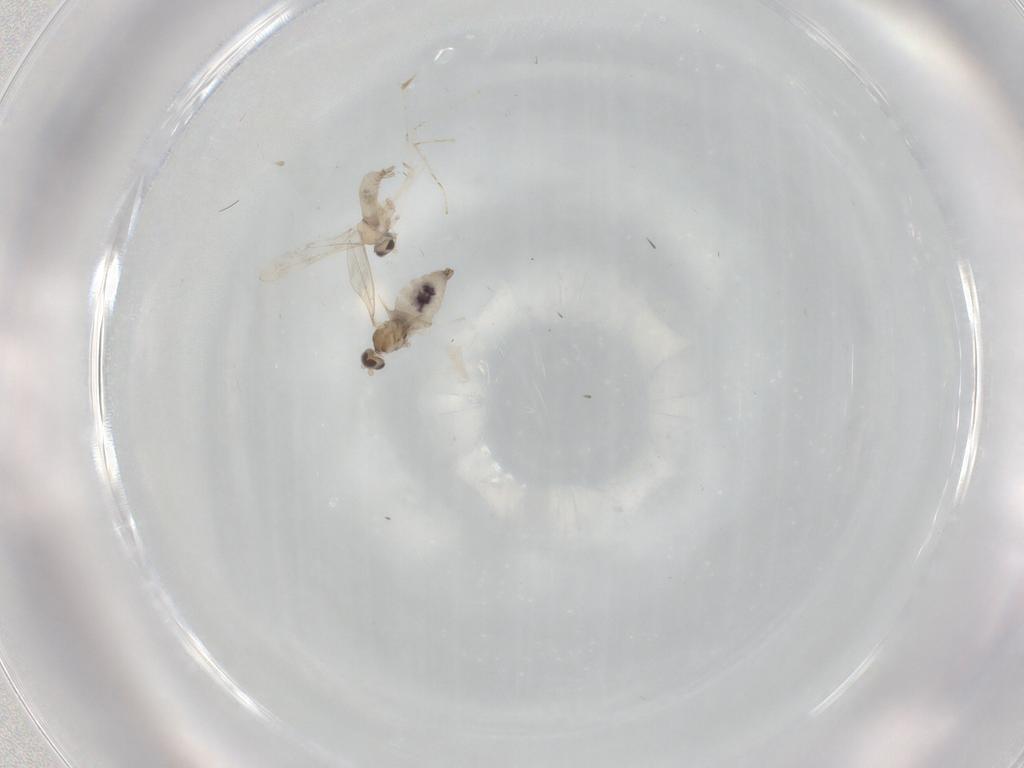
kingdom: Animalia
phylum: Arthropoda
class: Insecta
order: Diptera
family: Cecidomyiidae
